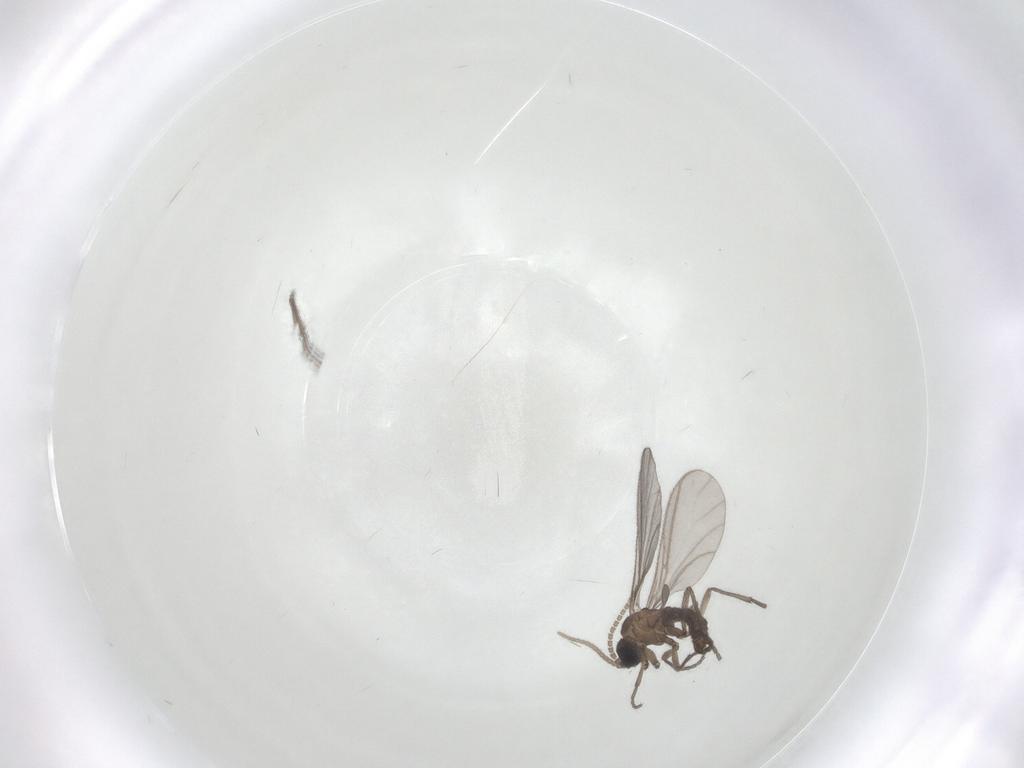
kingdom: Animalia
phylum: Arthropoda
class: Insecta
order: Diptera
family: Sciaridae
